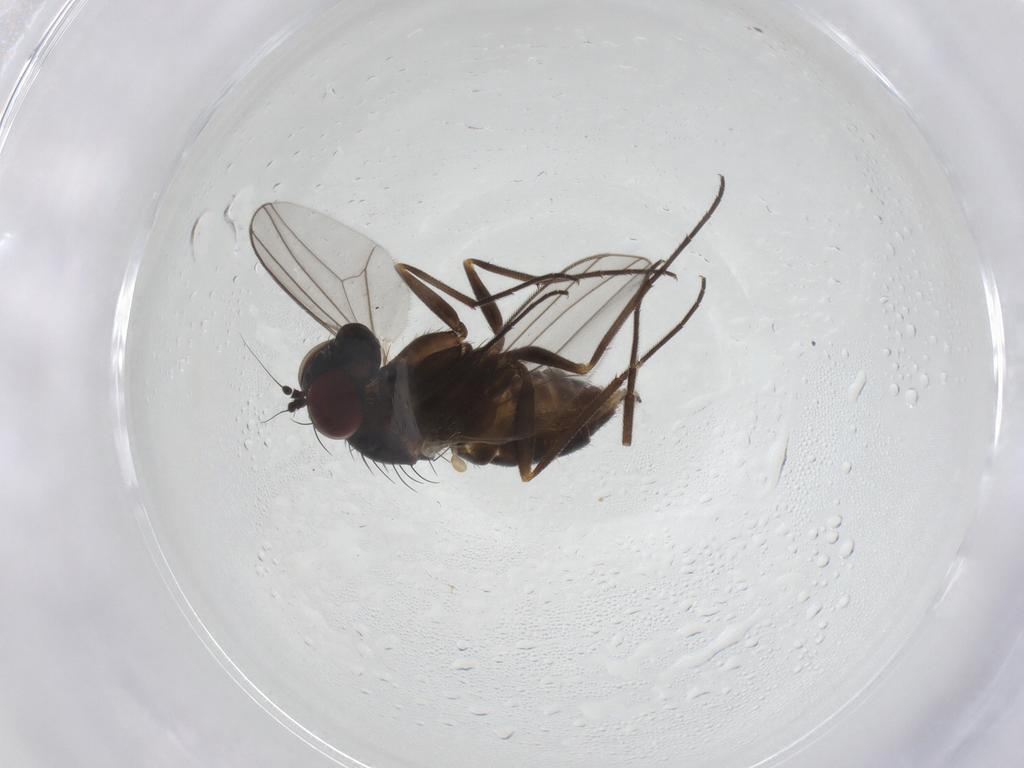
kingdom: Animalia
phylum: Arthropoda
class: Insecta
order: Diptera
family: Dolichopodidae
